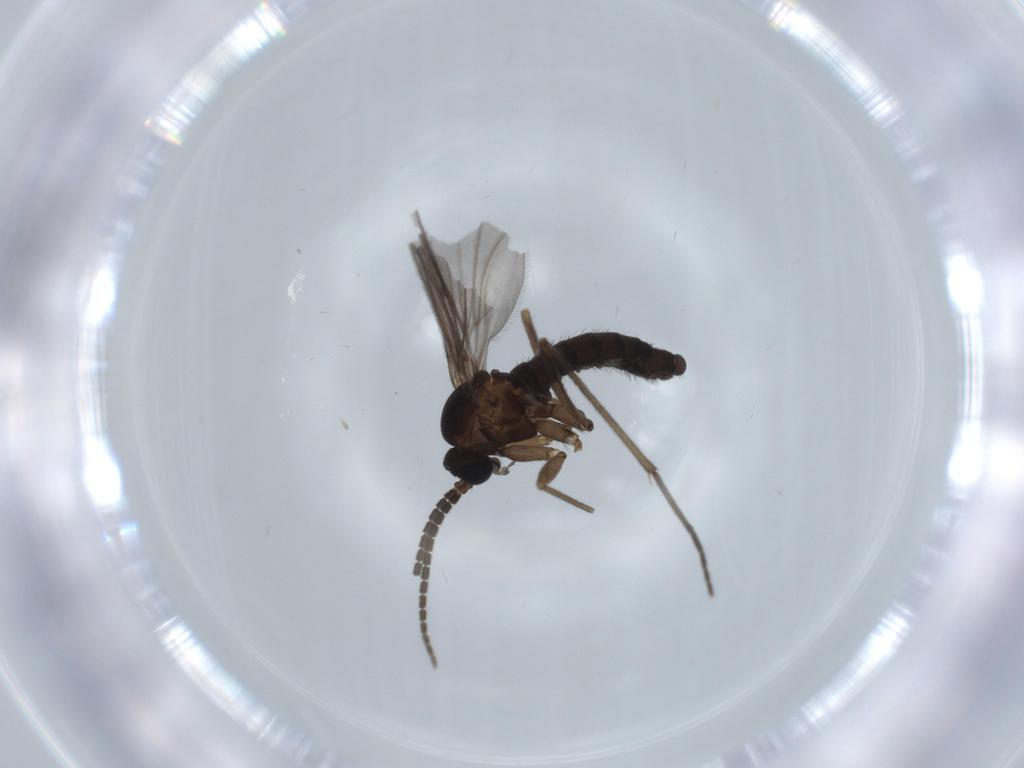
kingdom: Animalia
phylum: Arthropoda
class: Insecta
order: Diptera
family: Sciaridae
